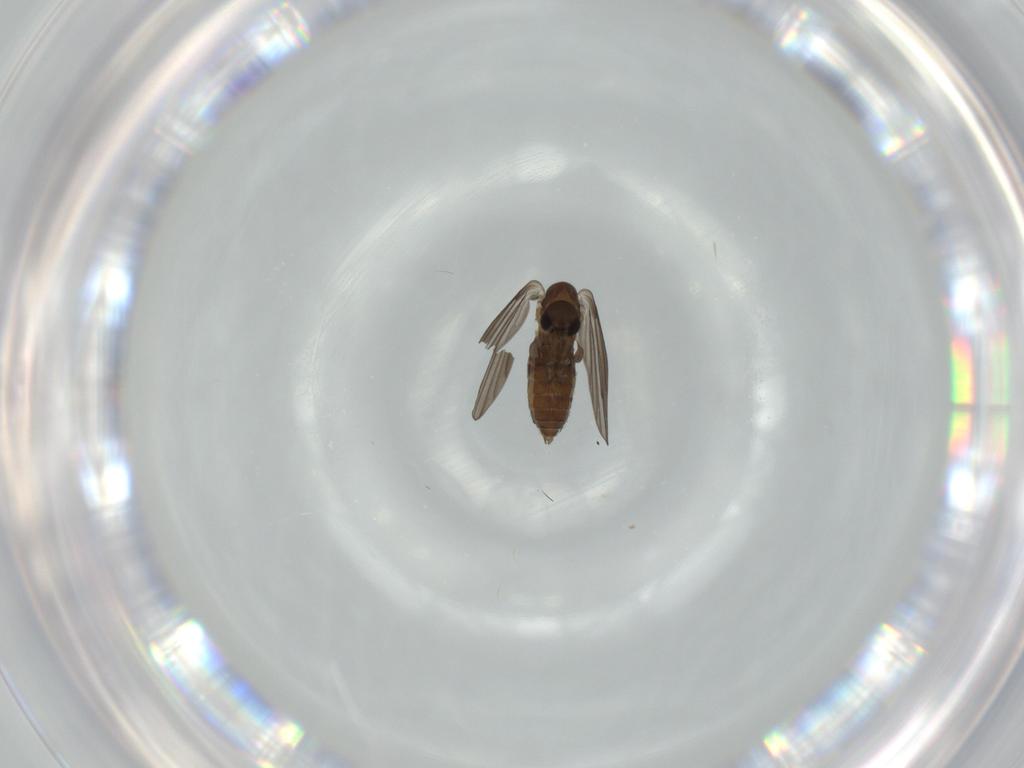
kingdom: Animalia
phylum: Arthropoda
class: Insecta
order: Diptera
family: Psychodidae
